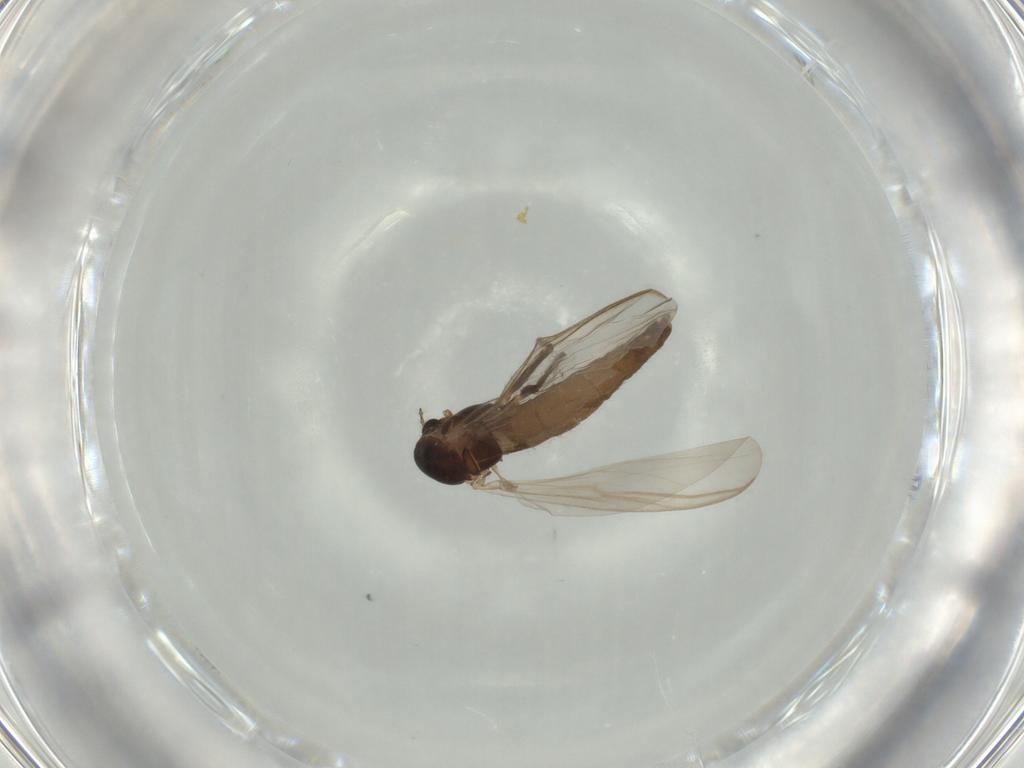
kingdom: Animalia
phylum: Arthropoda
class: Insecta
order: Diptera
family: Chironomidae
